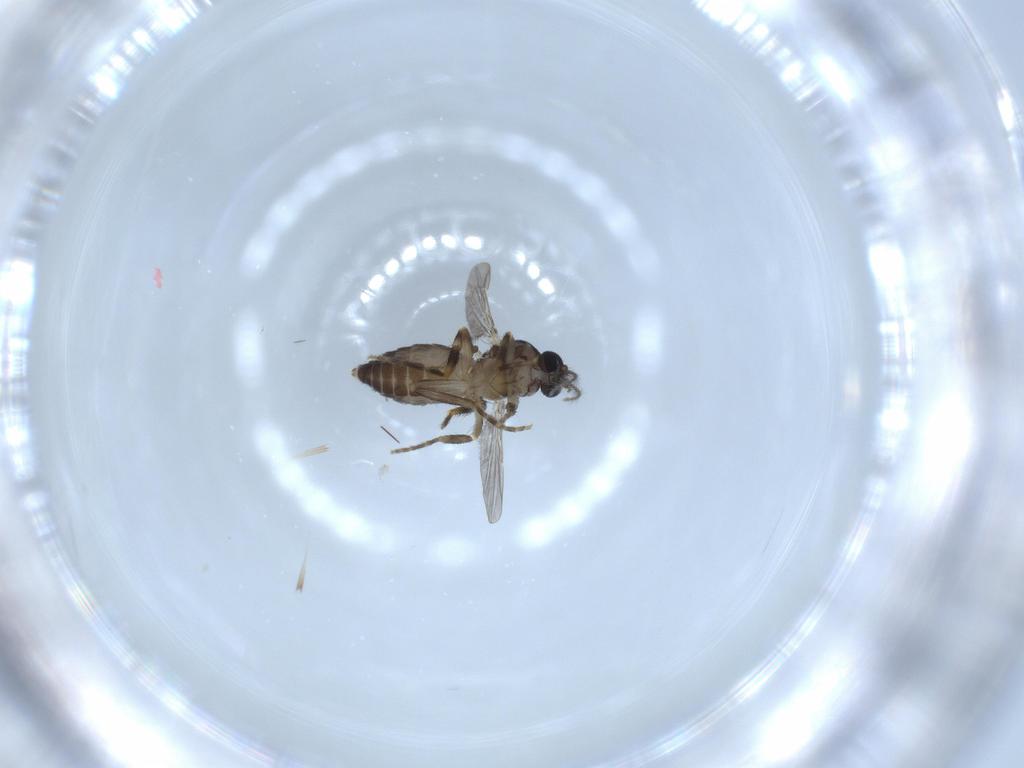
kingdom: Animalia
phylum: Arthropoda
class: Insecta
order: Diptera
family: Ceratopogonidae
